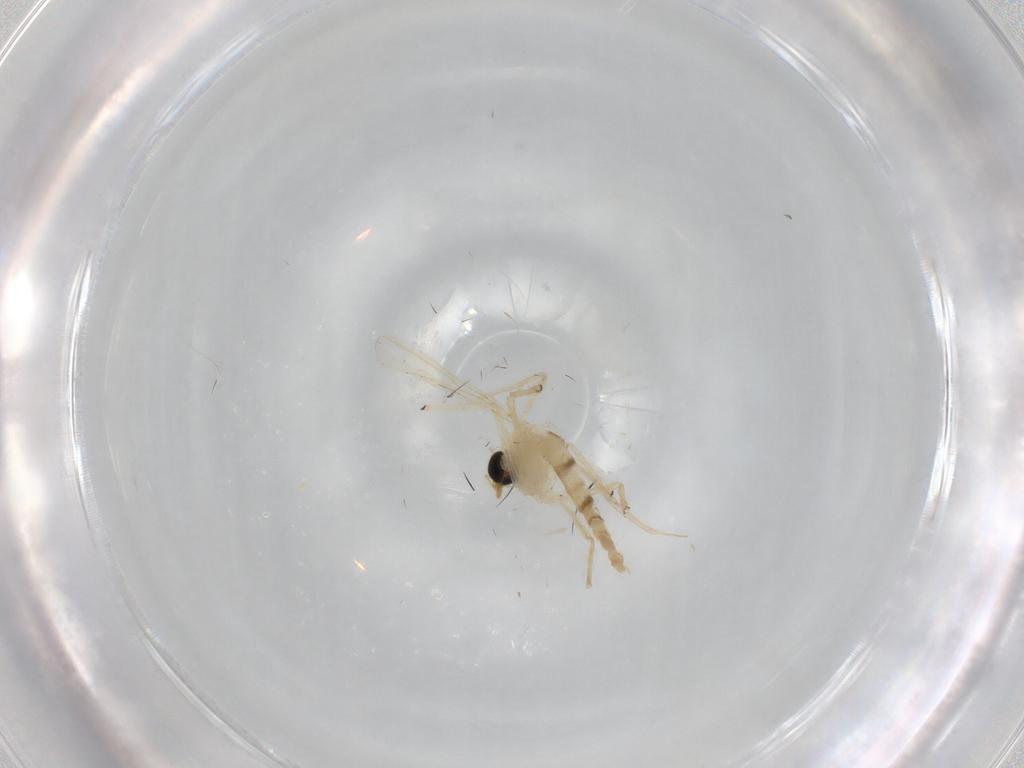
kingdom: Animalia
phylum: Arthropoda
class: Insecta
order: Diptera
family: Chironomidae
